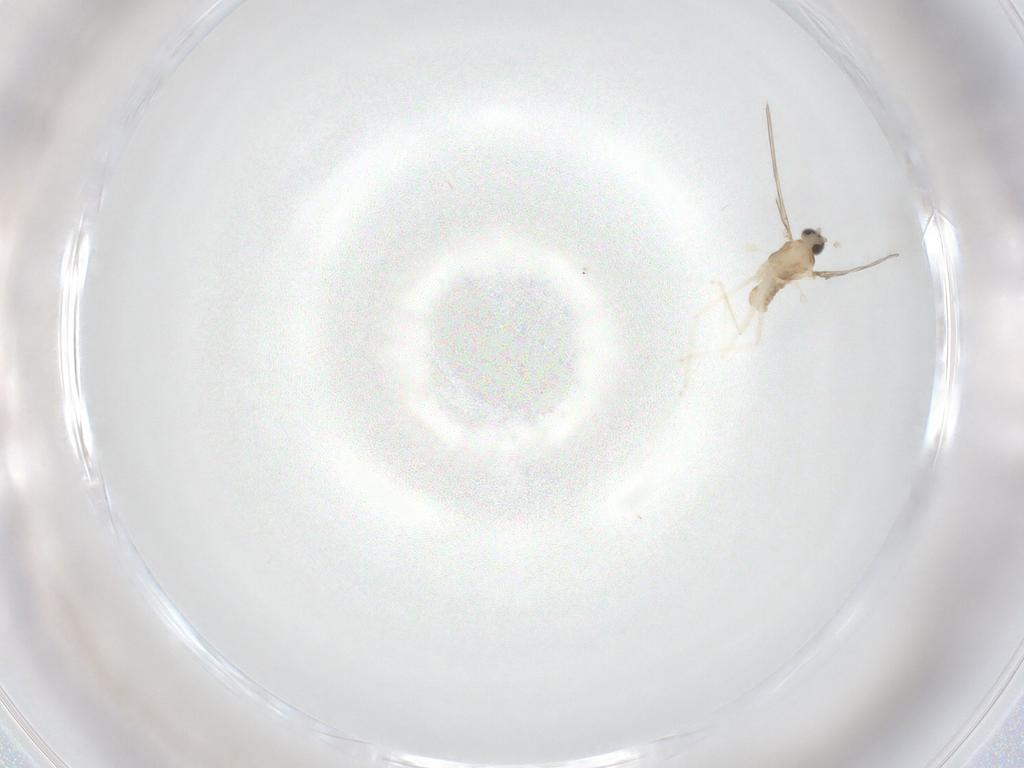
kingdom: Animalia
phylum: Arthropoda
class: Insecta
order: Diptera
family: Cecidomyiidae
